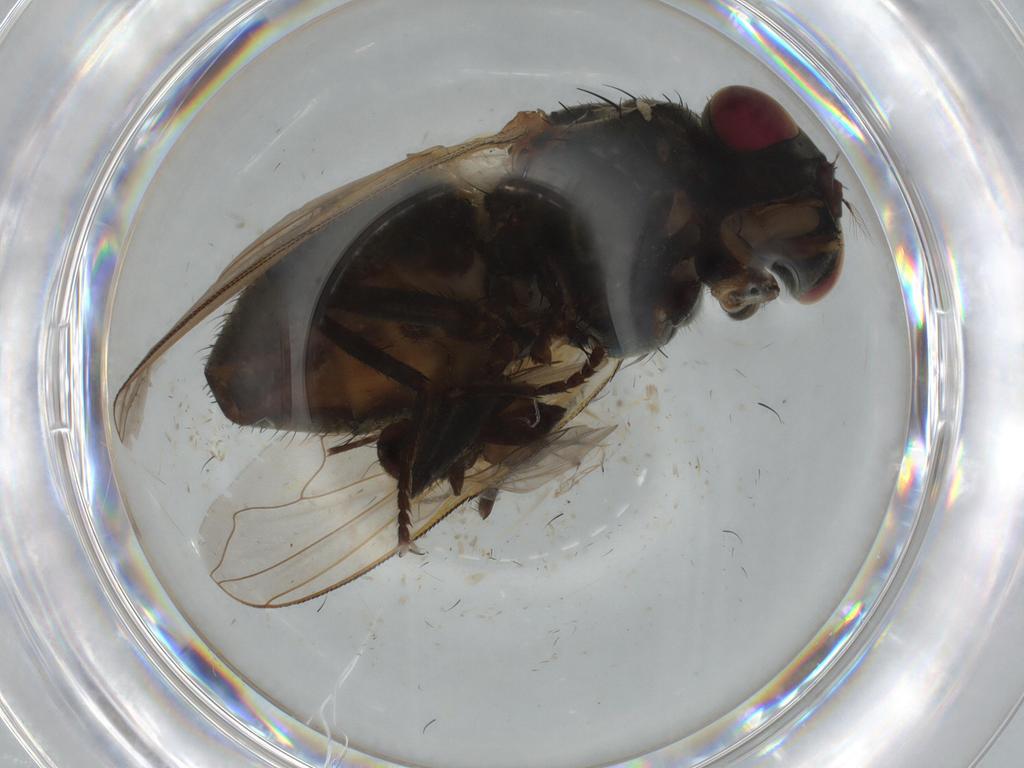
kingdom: Animalia
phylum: Arthropoda
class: Insecta
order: Diptera
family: Dolichopodidae
